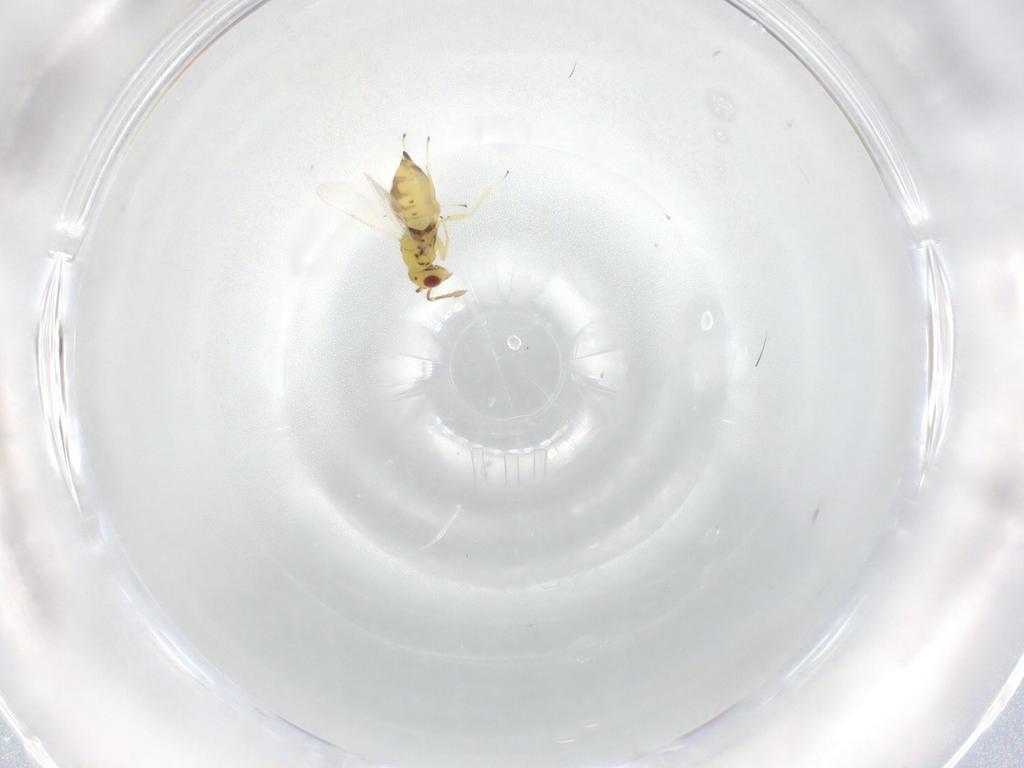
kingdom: Animalia
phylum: Arthropoda
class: Insecta
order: Hymenoptera
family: Eulophidae
